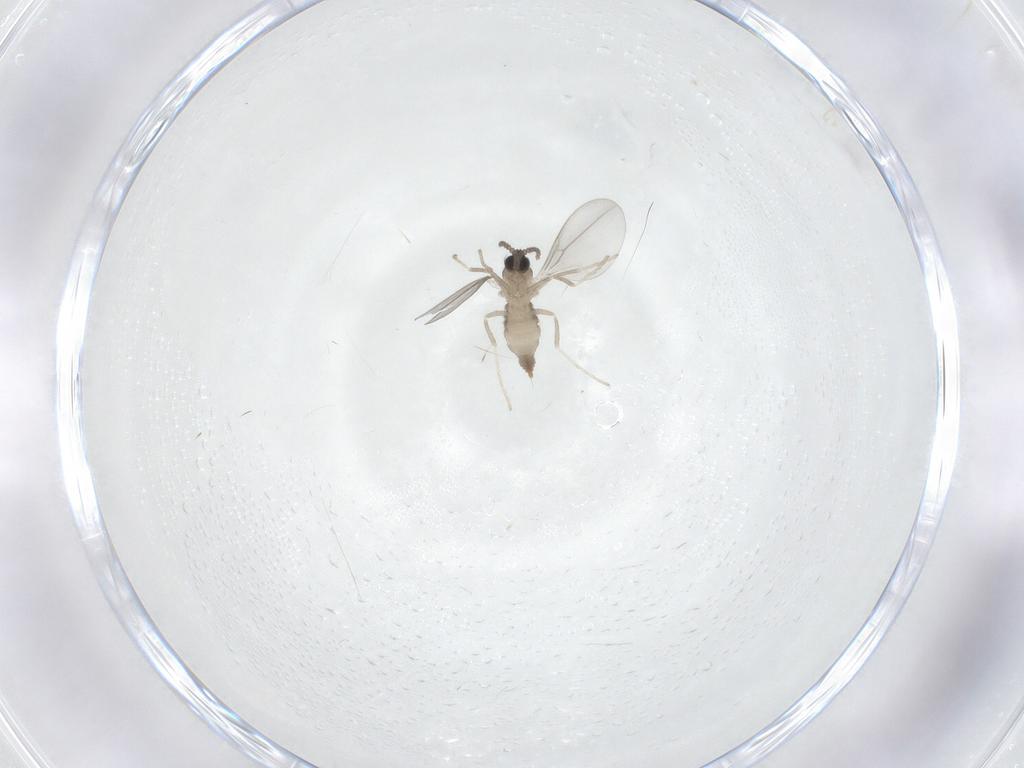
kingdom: Animalia
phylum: Arthropoda
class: Insecta
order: Diptera
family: Cecidomyiidae
